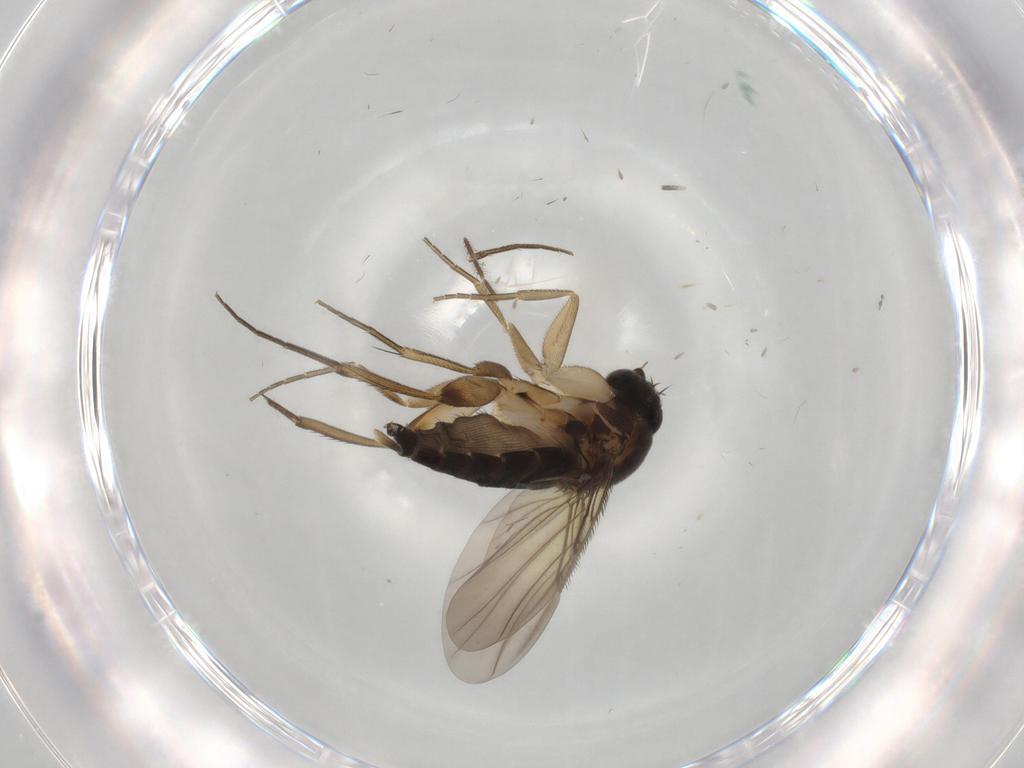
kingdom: Animalia
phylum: Arthropoda
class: Insecta
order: Diptera
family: Phoridae
